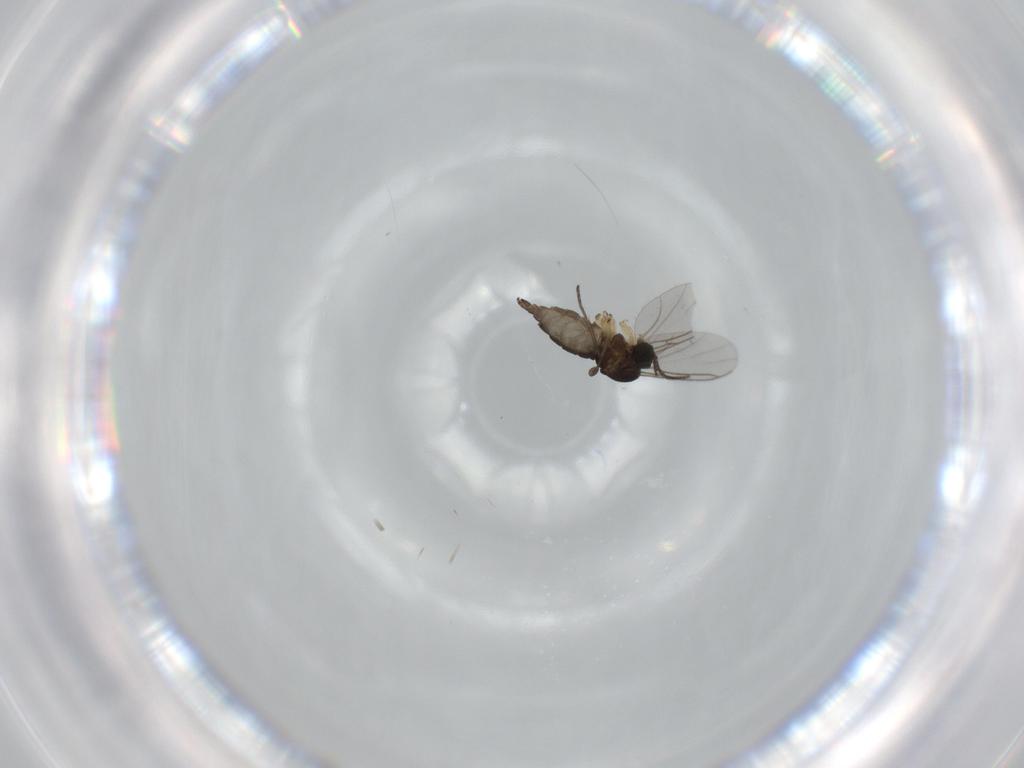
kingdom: Animalia
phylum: Arthropoda
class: Insecta
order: Diptera
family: Sciaridae
